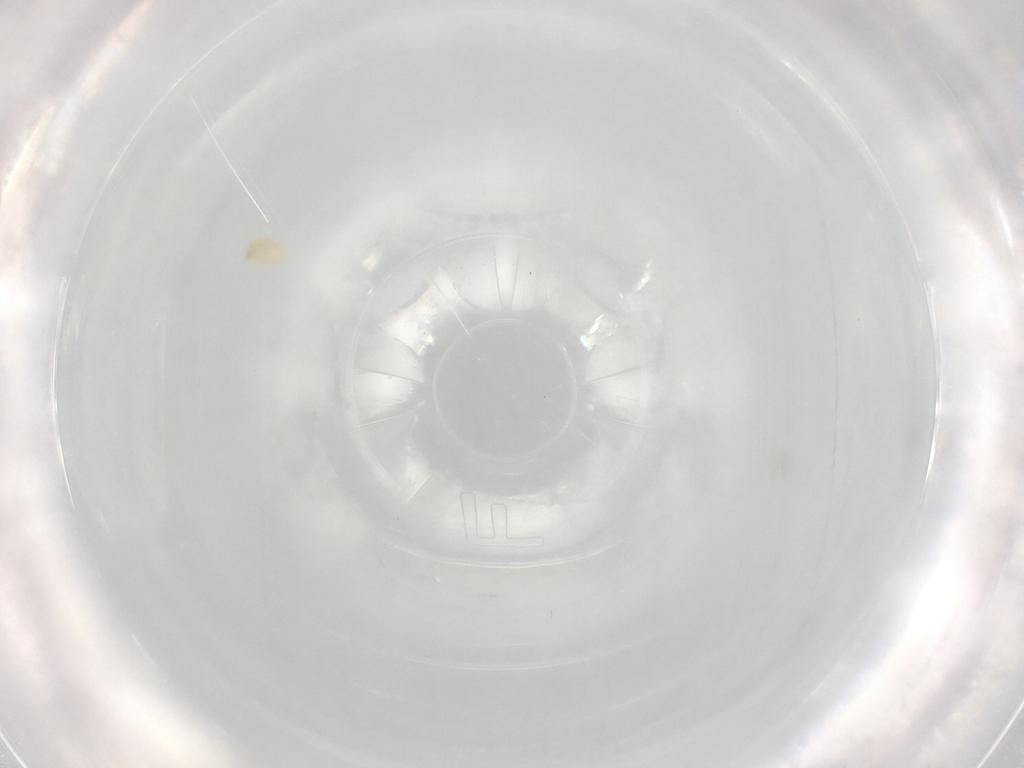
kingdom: Animalia
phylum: Arthropoda
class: Arachnida
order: Trombidiformes
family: Eupodidae
